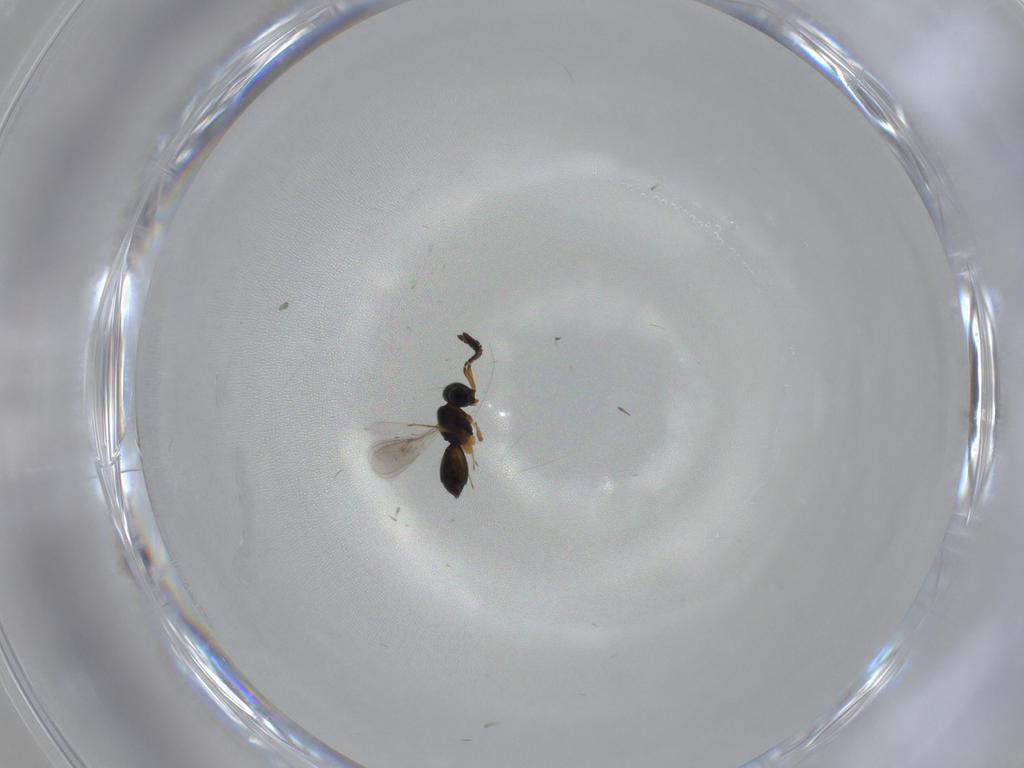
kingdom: Animalia
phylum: Arthropoda
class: Insecta
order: Hymenoptera
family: Scelionidae
